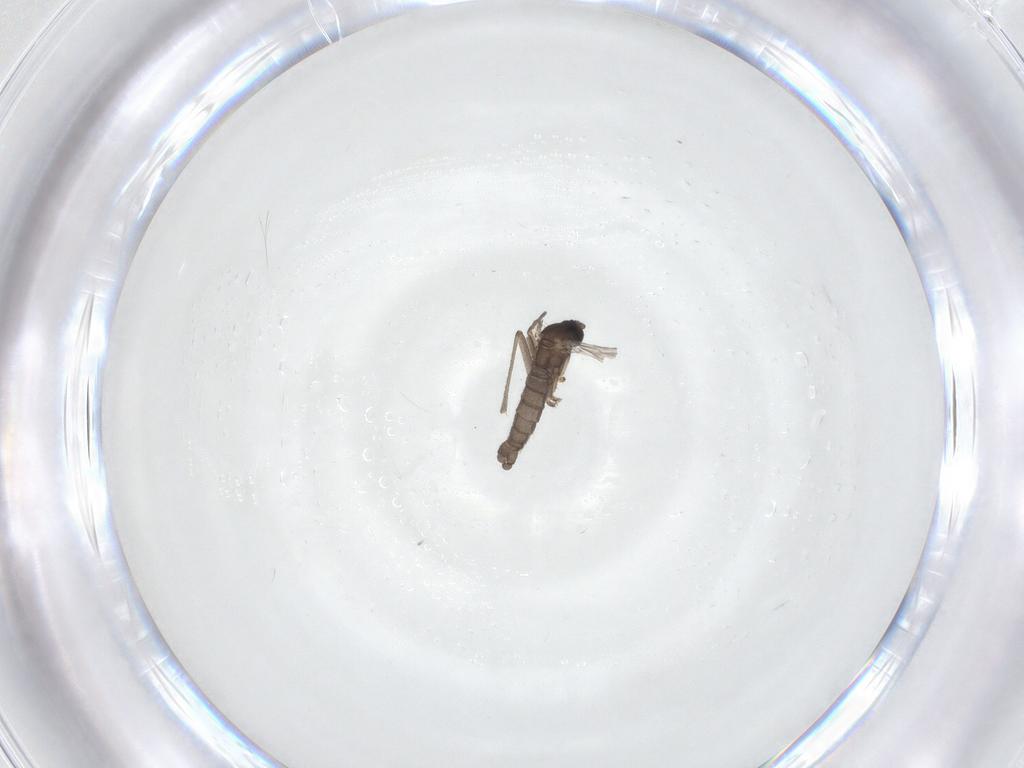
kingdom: Animalia
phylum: Arthropoda
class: Insecta
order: Diptera
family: Sciaridae
